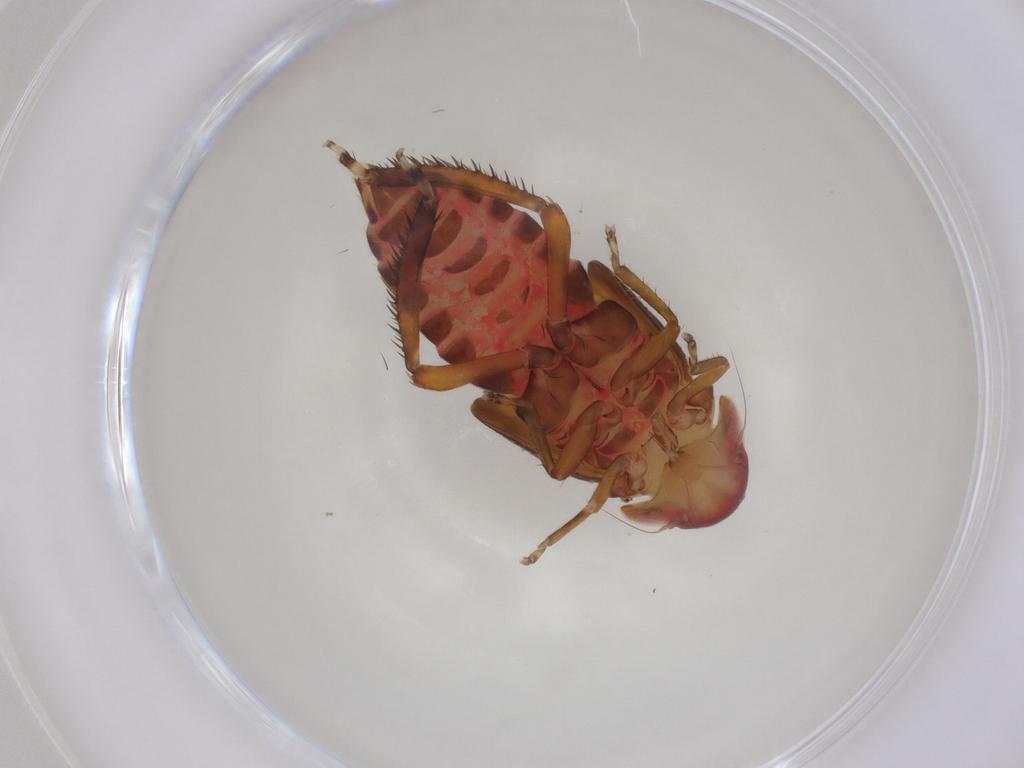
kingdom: Animalia
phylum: Arthropoda
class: Insecta
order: Hemiptera
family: Cicadellidae
